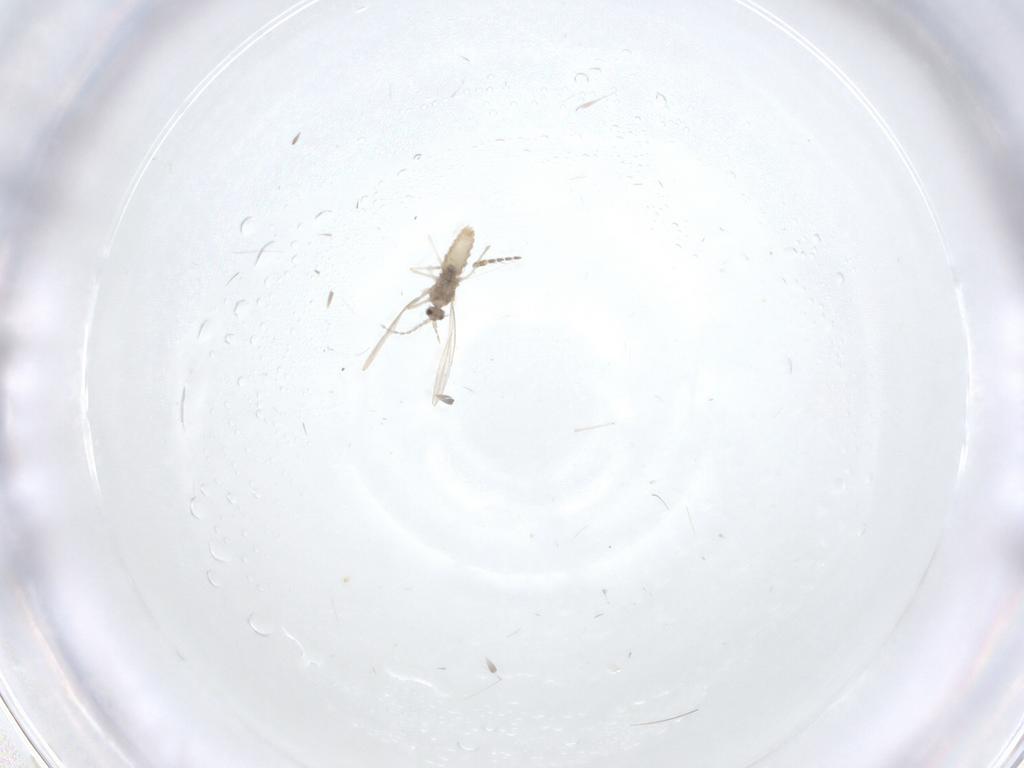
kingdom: Animalia
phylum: Arthropoda
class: Insecta
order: Diptera
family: Cecidomyiidae
